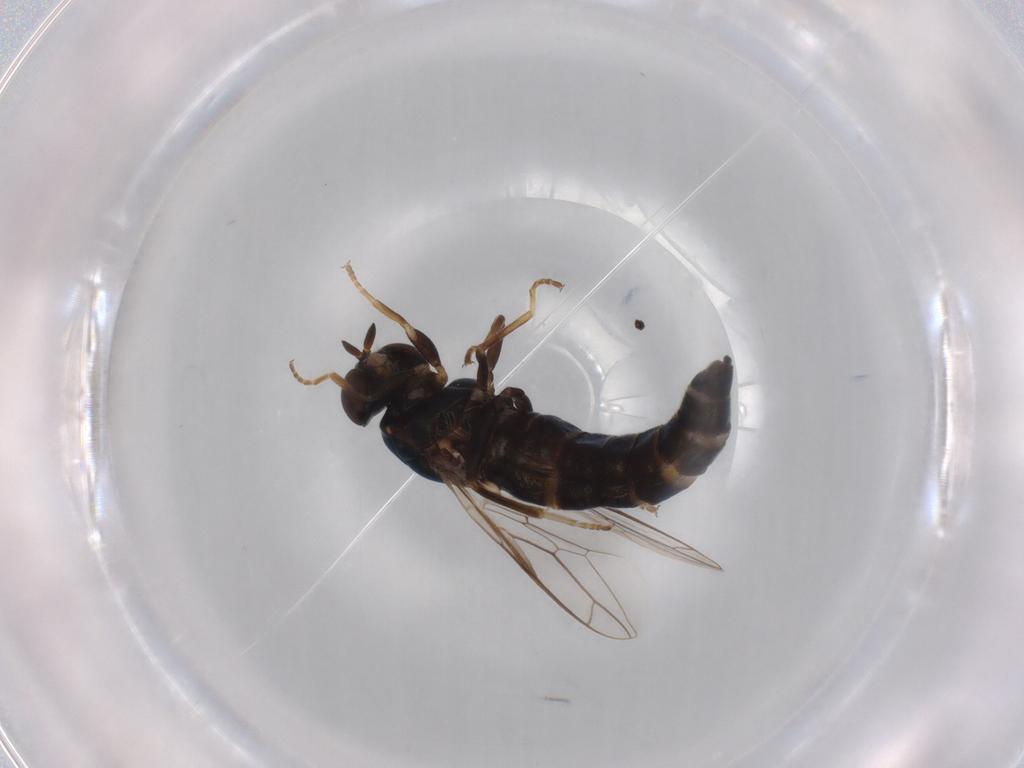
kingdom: Animalia
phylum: Arthropoda
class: Insecta
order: Diptera
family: Scenopinidae
